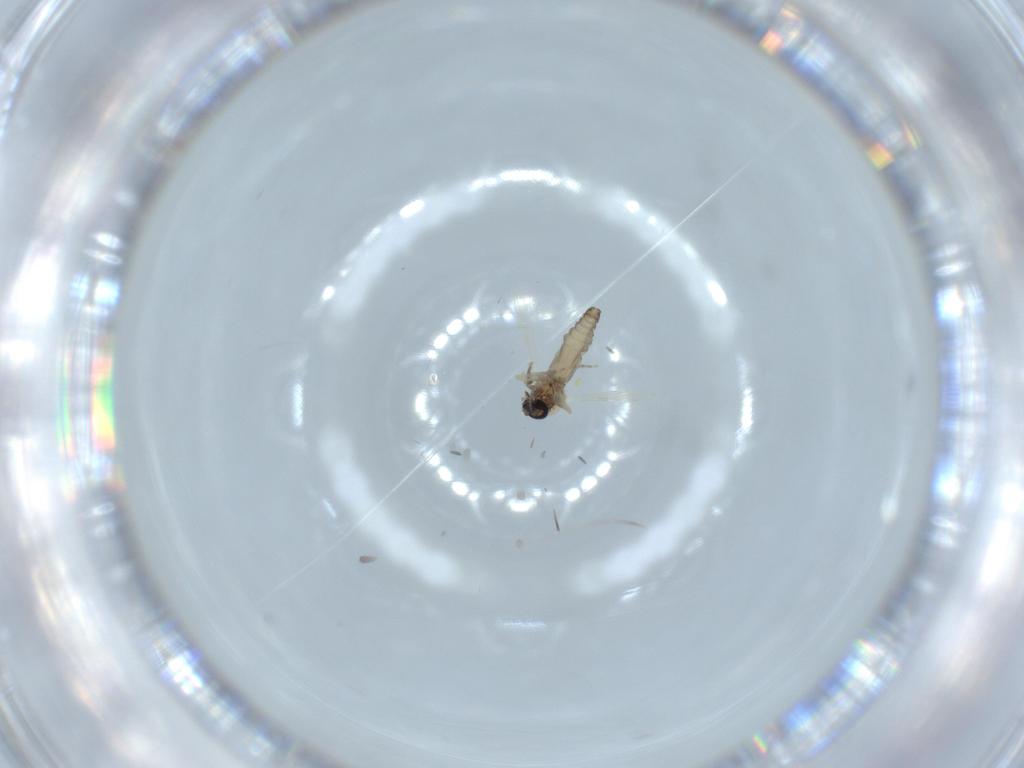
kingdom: Animalia
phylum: Arthropoda
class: Insecta
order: Diptera
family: Ceratopogonidae
